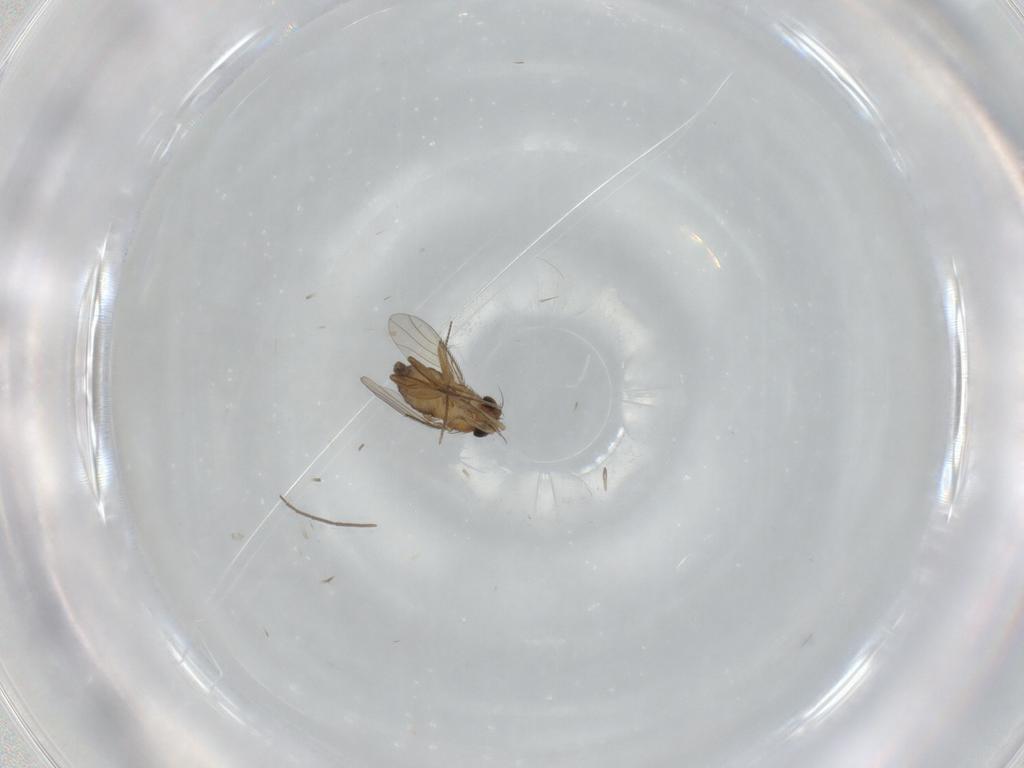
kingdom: Animalia
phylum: Arthropoda
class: Insecta
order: Diptera
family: Phoridae
